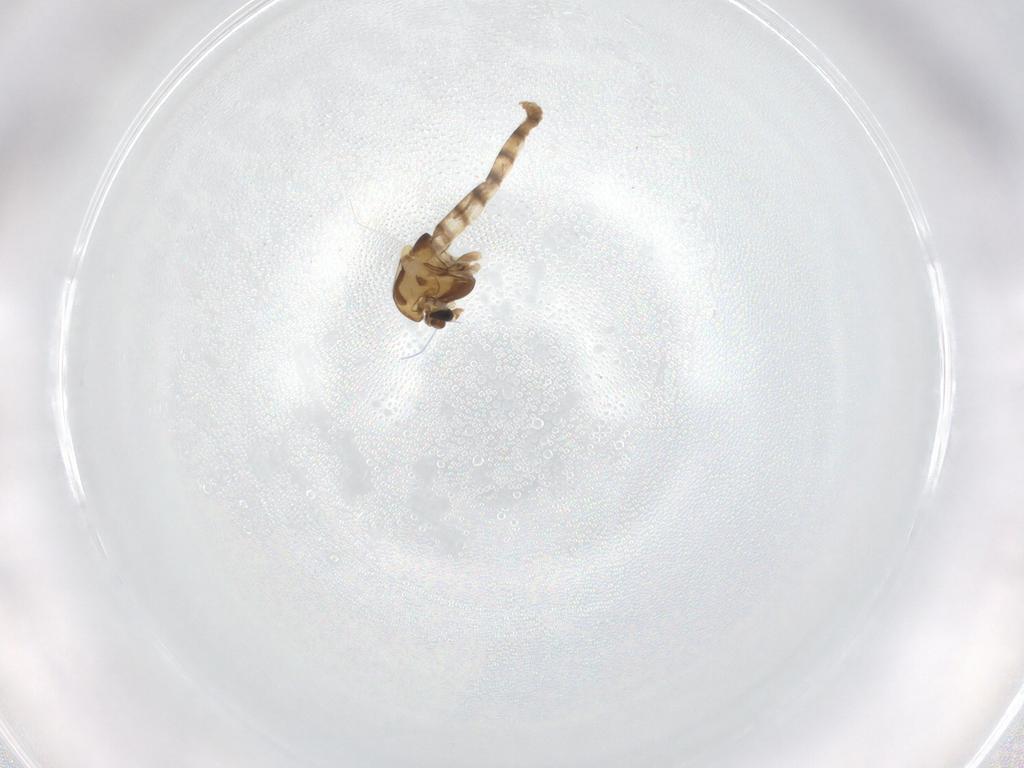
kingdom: Animalia
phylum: Arthropoda
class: Insecta
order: Diptera
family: Chironomidae
